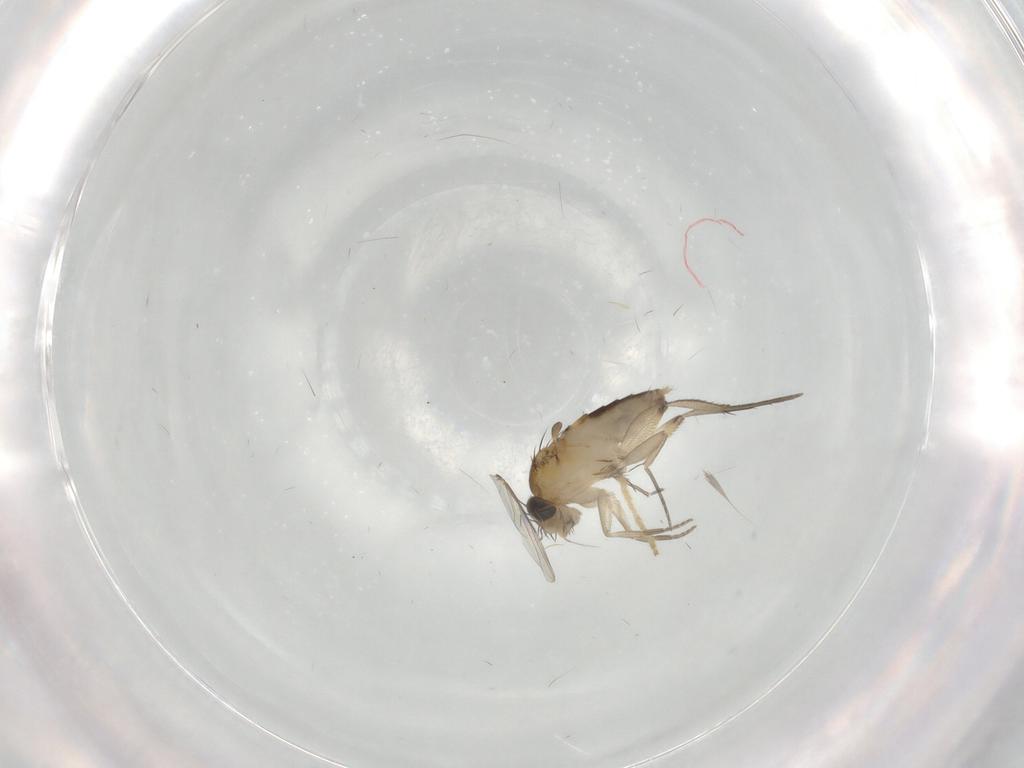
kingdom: Animalia
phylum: Arthropoda
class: Insecta
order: Diptera
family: Phoridae
